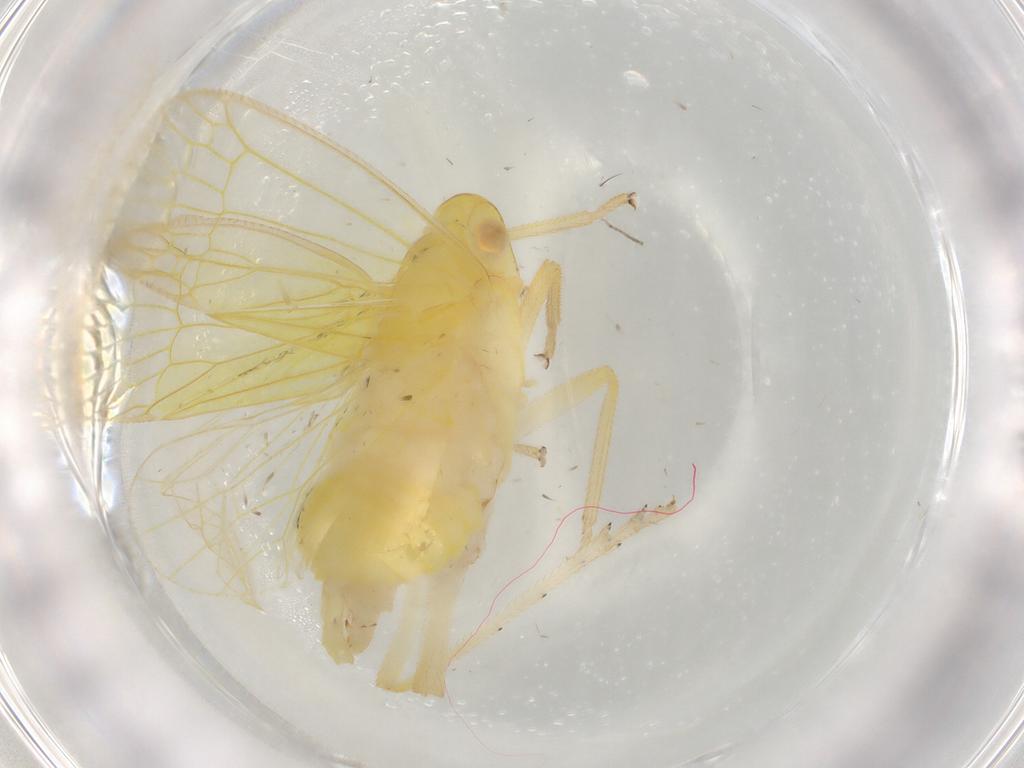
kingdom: Animalia
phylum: Arthropoda
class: Insecta
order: Hemiptera
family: Tropiduchidae
